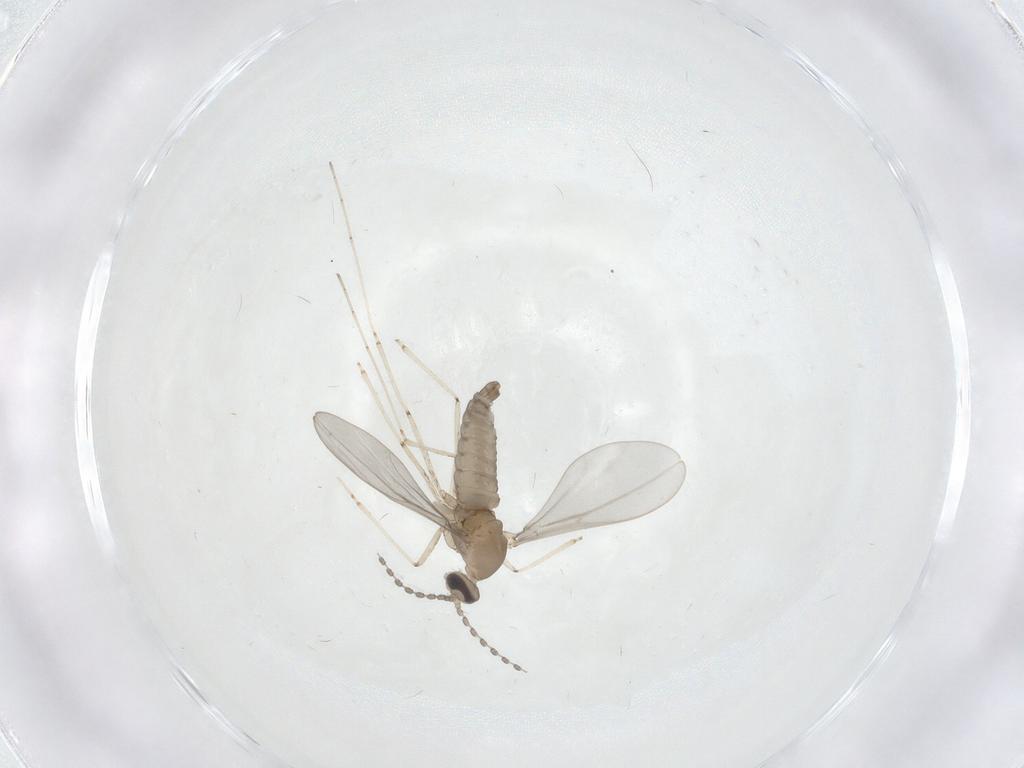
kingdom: Animalia
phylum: Arthropoda
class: Insecta
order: Diptera
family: Cecidomyiidae
